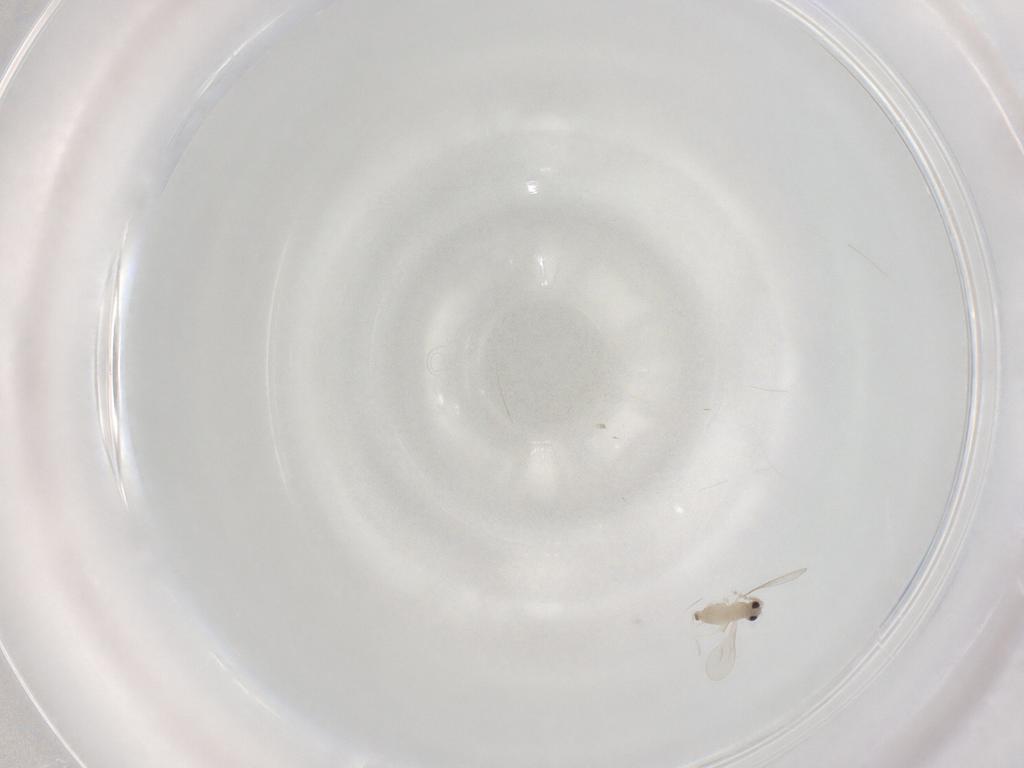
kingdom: Animalia
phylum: Arthropoda
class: Insecta
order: Diptera
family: Cecidomyiidae
